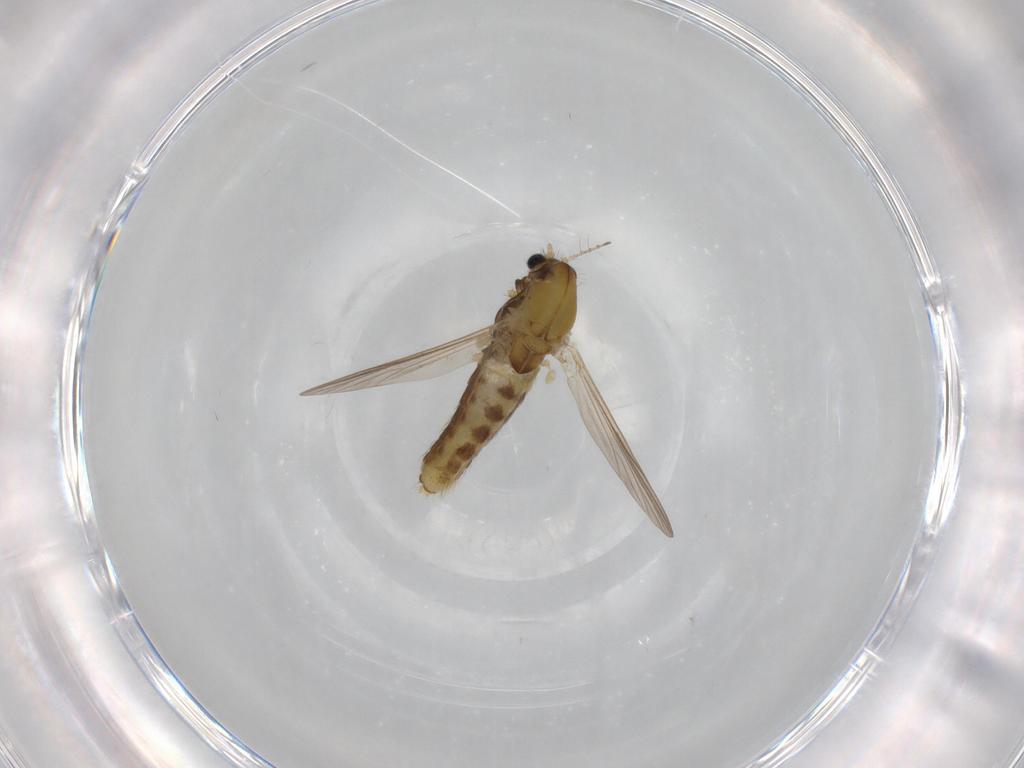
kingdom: Animalia
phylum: Arthropoda
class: Insecta
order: Diptera
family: Chironomidae
